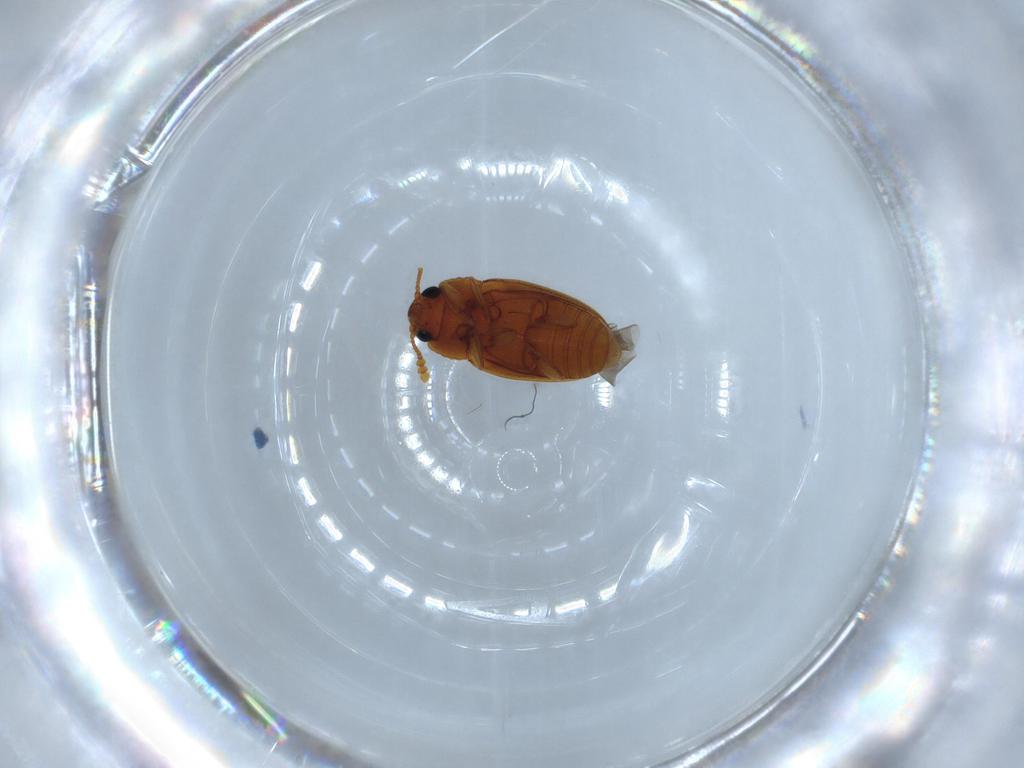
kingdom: Animalia
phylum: Arthropoda
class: Insecta
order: Coleoptera
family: Erotylidae
